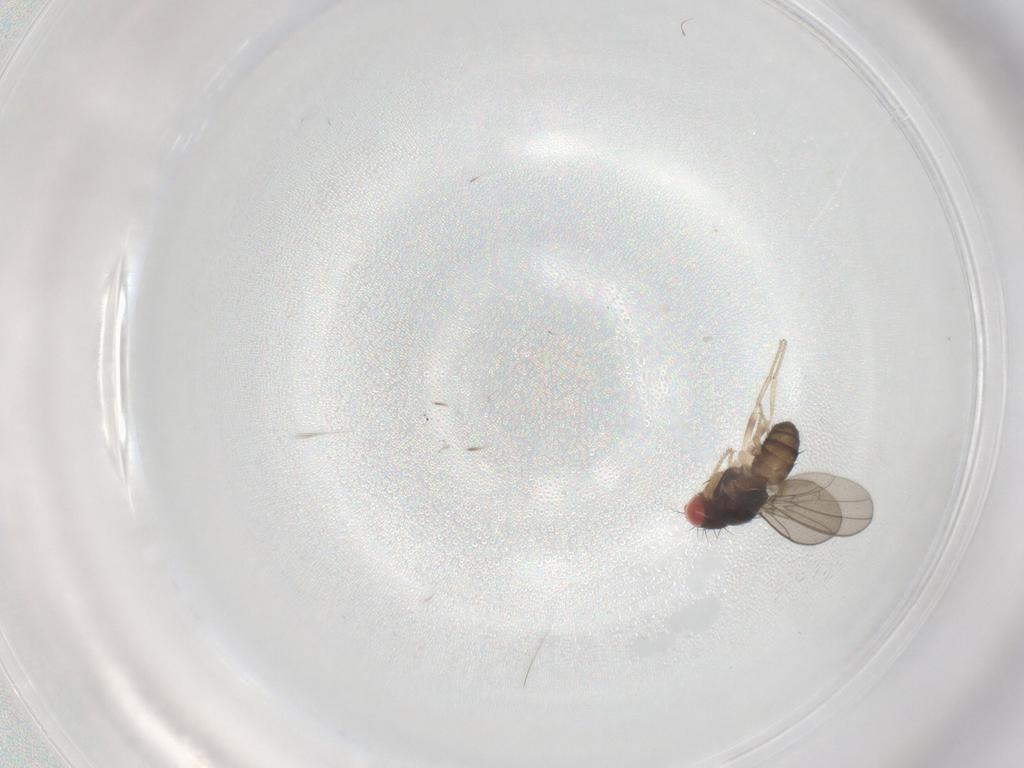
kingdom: Animalia
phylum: Arthropoda
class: Insecta
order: Diptera
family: Drosophilidae
